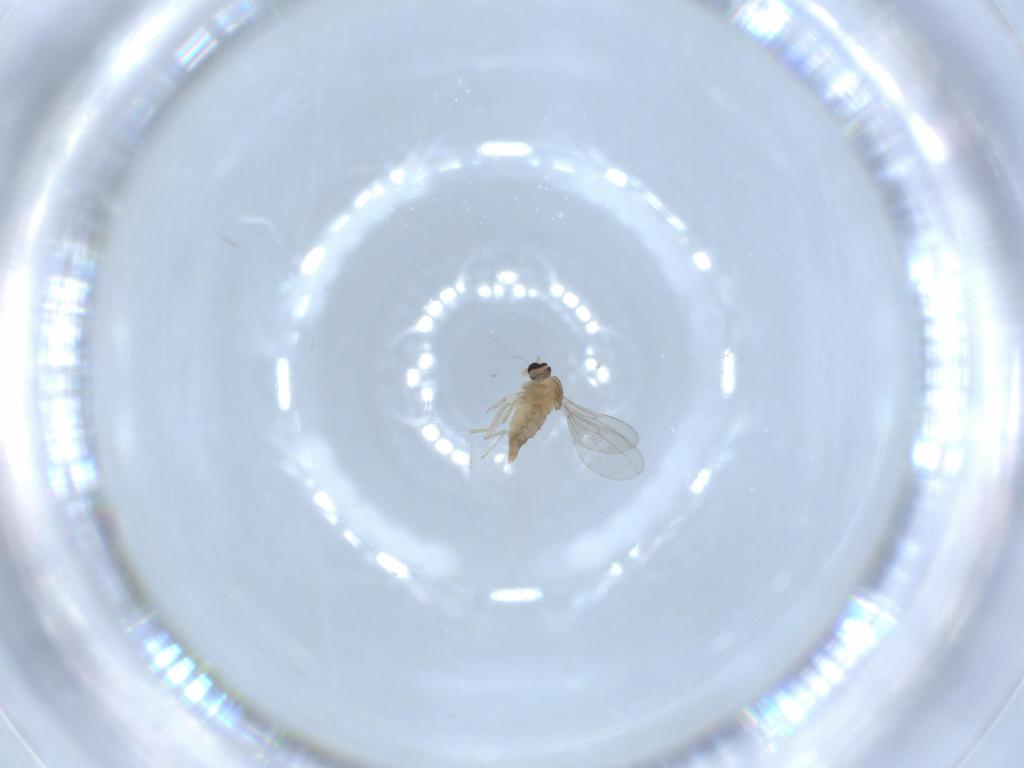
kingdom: Animalia
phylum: Arthropoda
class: Insecta
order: Diptera
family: Cecidomyiidae
